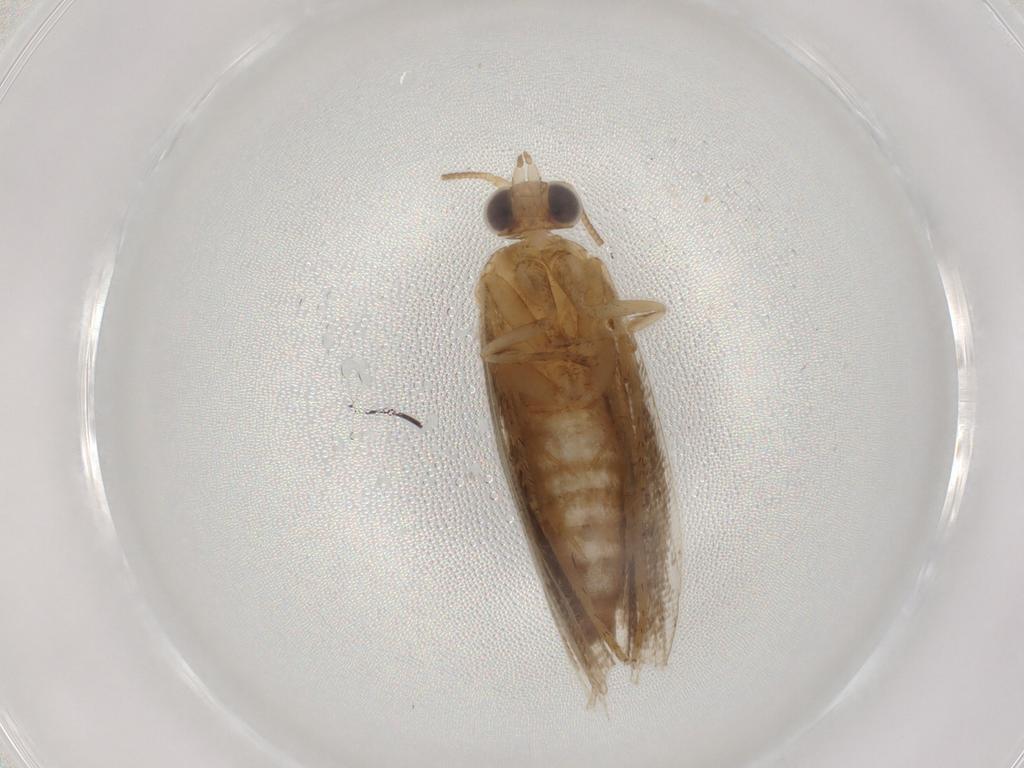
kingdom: Animalia
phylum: Arthropoda
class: Insecta
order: Lepidoptera
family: Tortricidae
